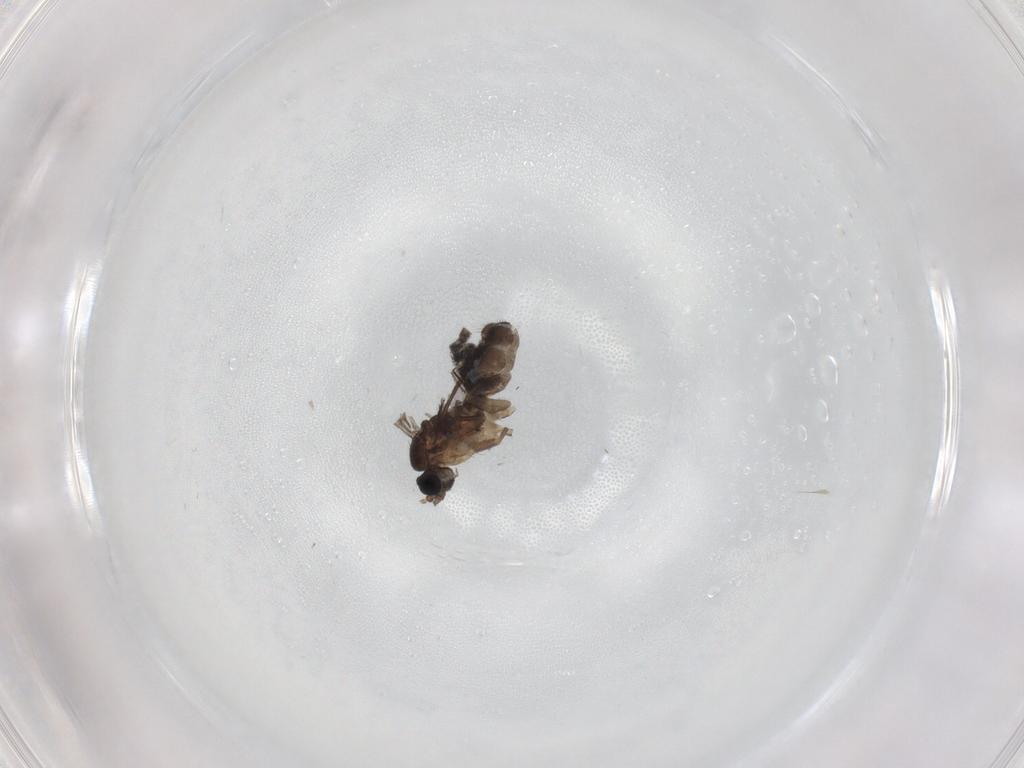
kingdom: Animalia
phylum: Arthropoda
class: Insecta
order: Diptera
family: Sciaridae
